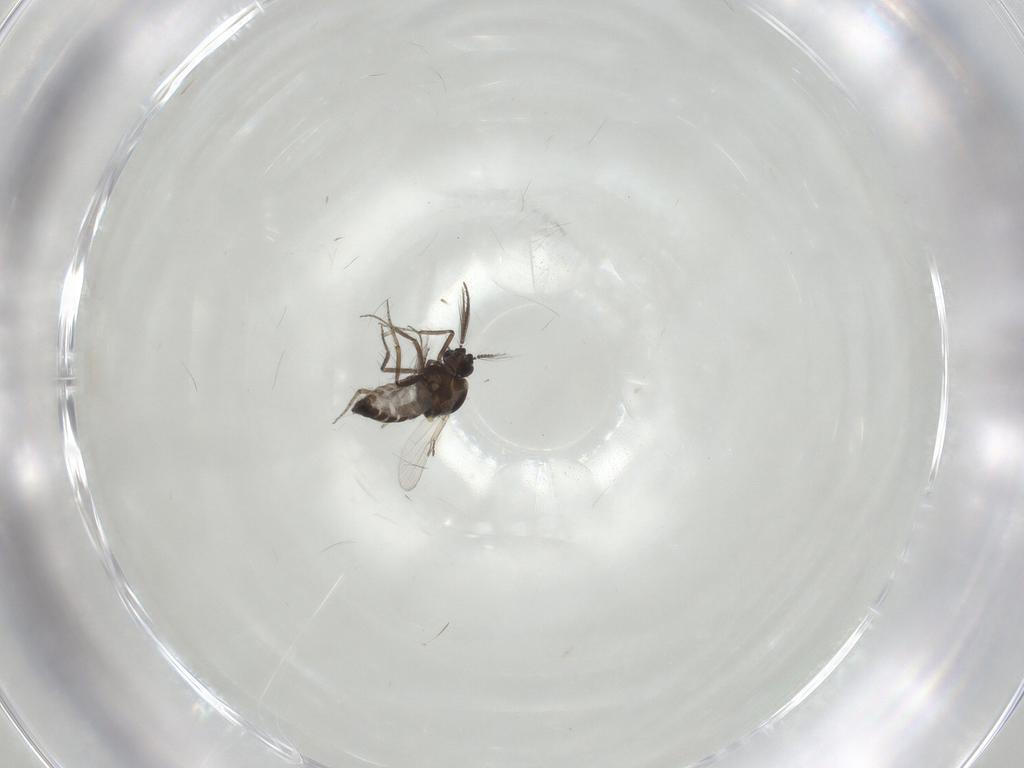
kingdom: Animalia
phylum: Arthropoda
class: Insecta
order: Diptera
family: Ceratopogonidae
